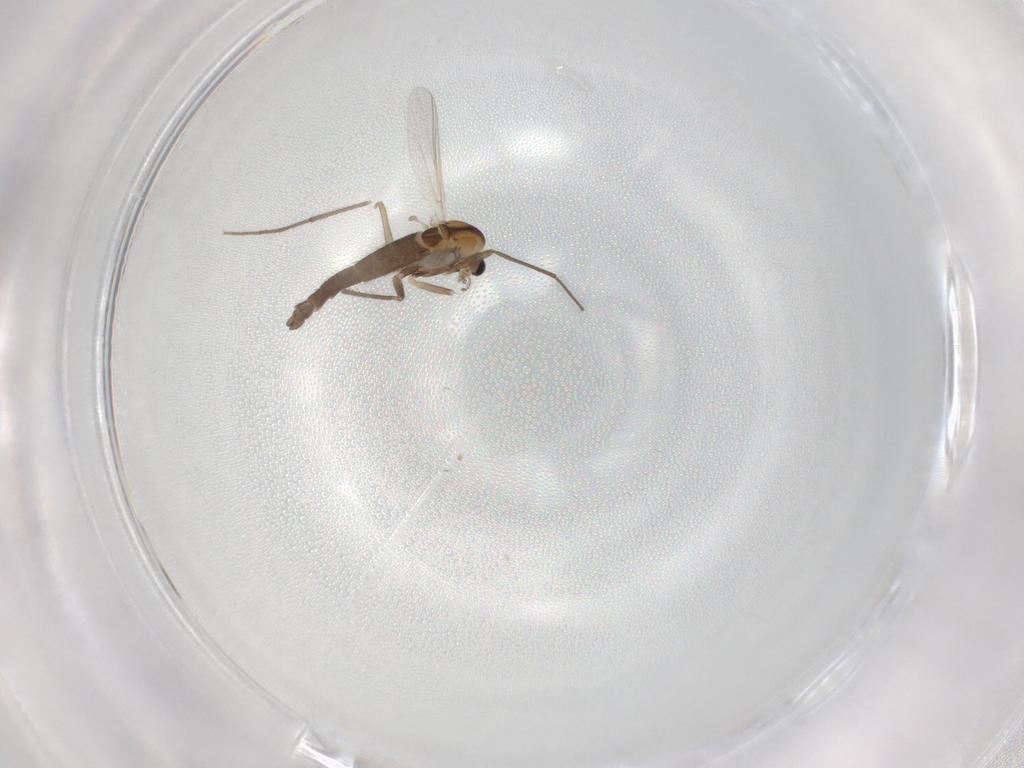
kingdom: Animalia
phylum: Arthropoda
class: Insecta
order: Diptera
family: Chironomidae
